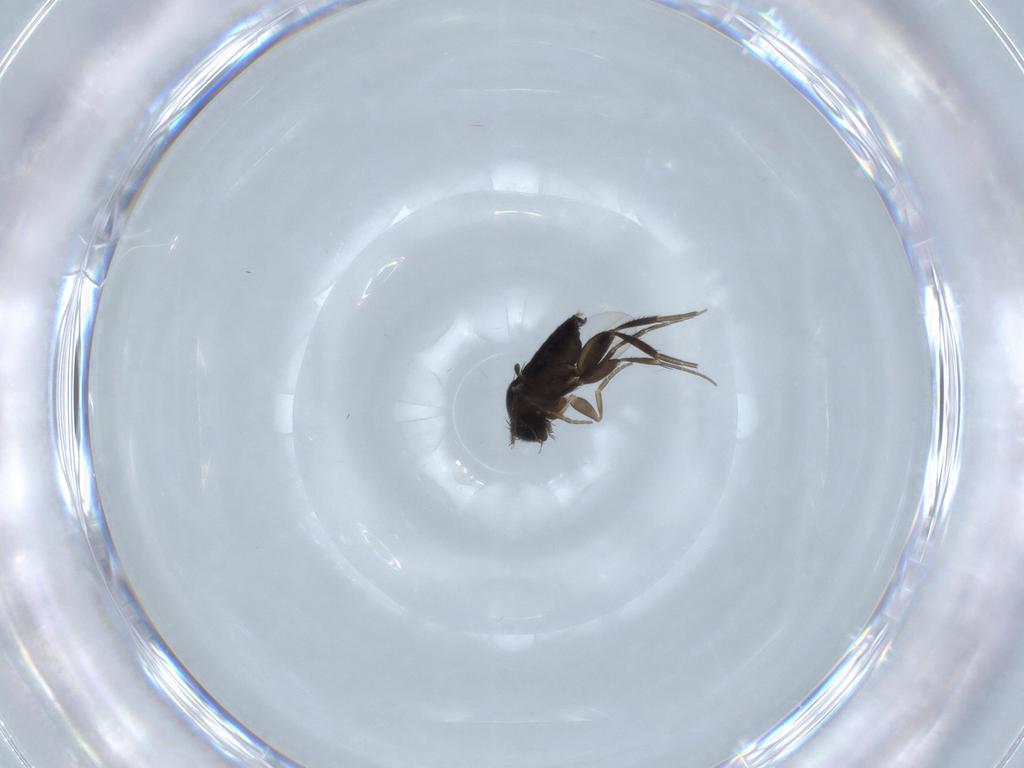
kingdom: Animalia
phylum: Arthropoda
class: Insecta
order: Diptera
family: Phoridae
